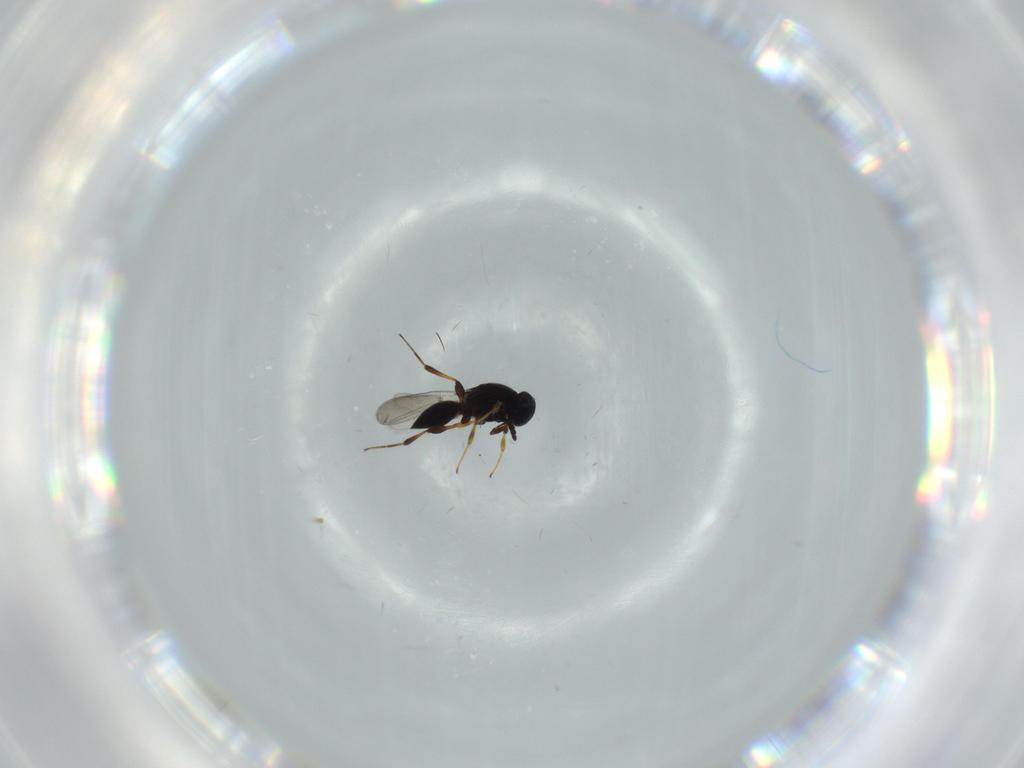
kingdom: Animalia
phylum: Arthropoda
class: Insecta
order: Hymenoptera
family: Platygastridae
